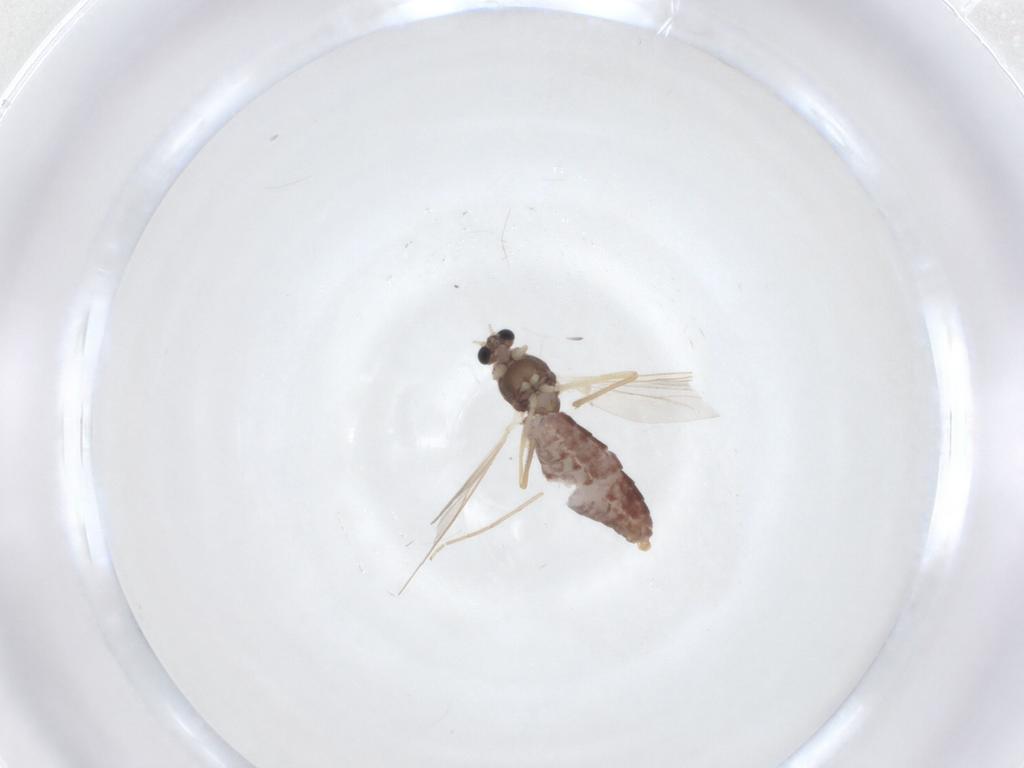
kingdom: Animalia
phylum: Arthropoda
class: Insecta
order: Diptera
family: Chironomidae
